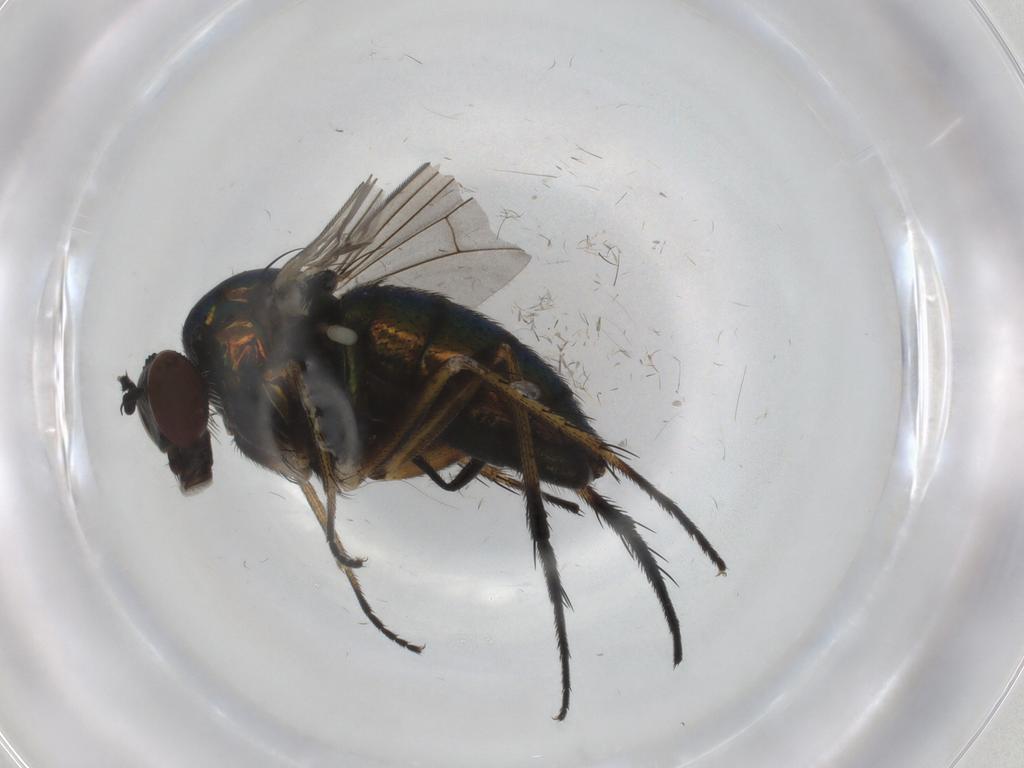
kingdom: Animalia
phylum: Arthropoda
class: Insecta
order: Diptera
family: Dolichopodidae
